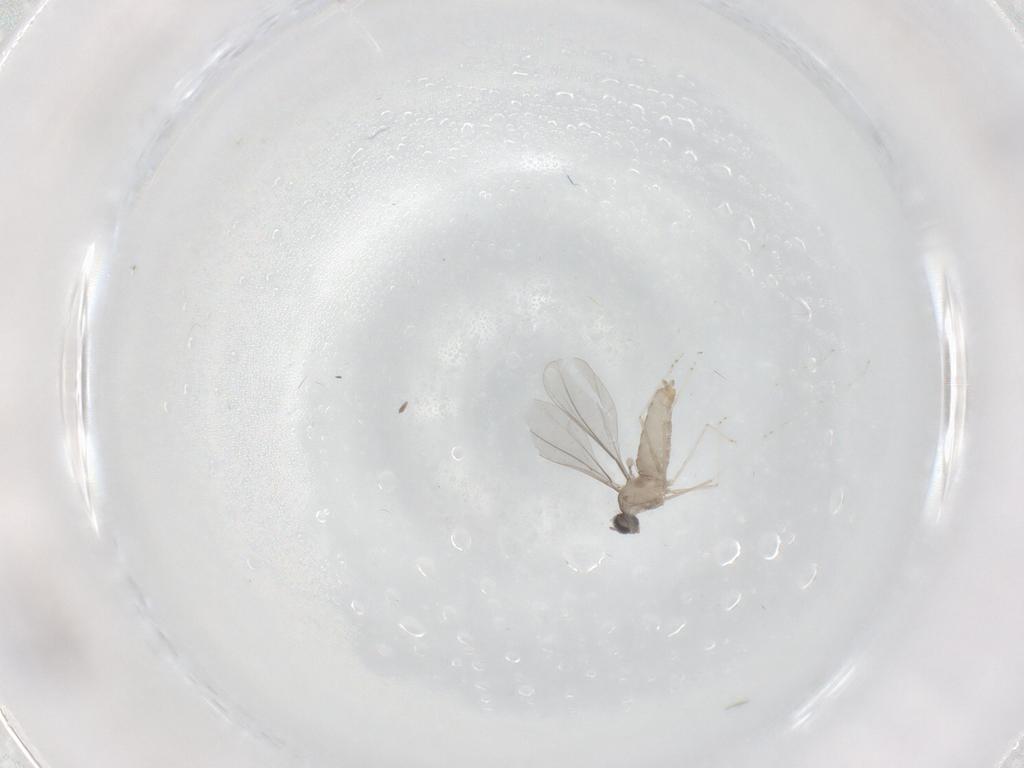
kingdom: Animalia
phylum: Arthropoda
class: Insecta
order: Diptera
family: Cecidomyiidae
